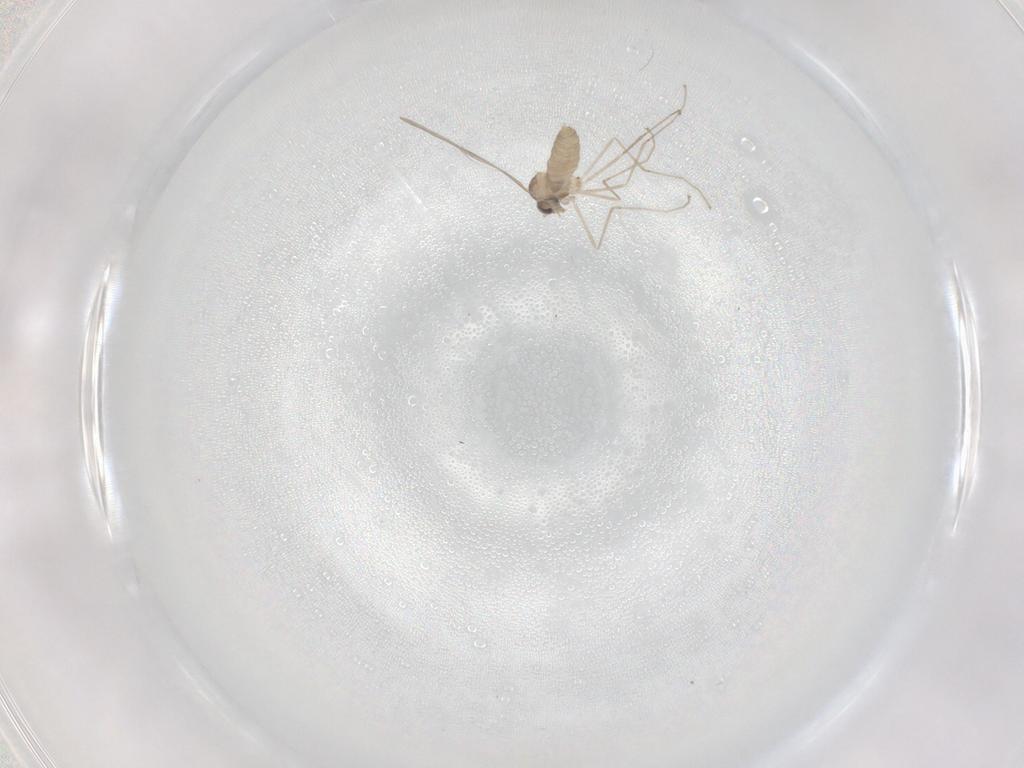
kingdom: Animalia
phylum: Arthropoda
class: Insecta
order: Diptera
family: Cecidomyiidae
